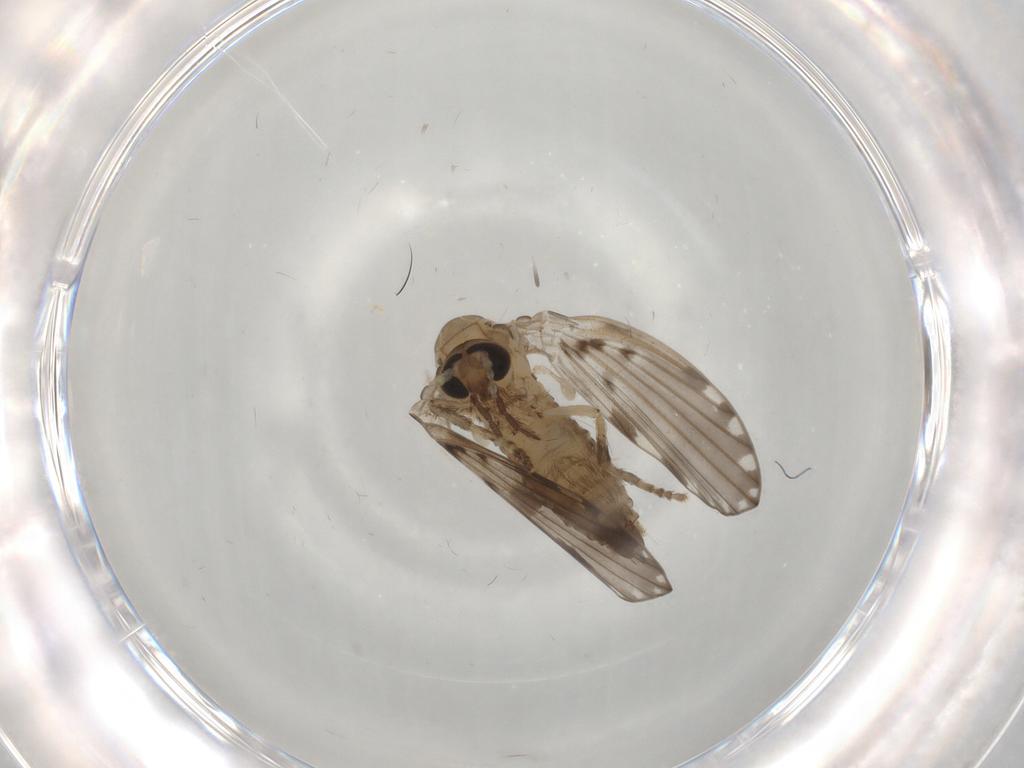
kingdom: Animalia
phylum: Arthropoda
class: Insecta
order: Diptera
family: Psychodidae
